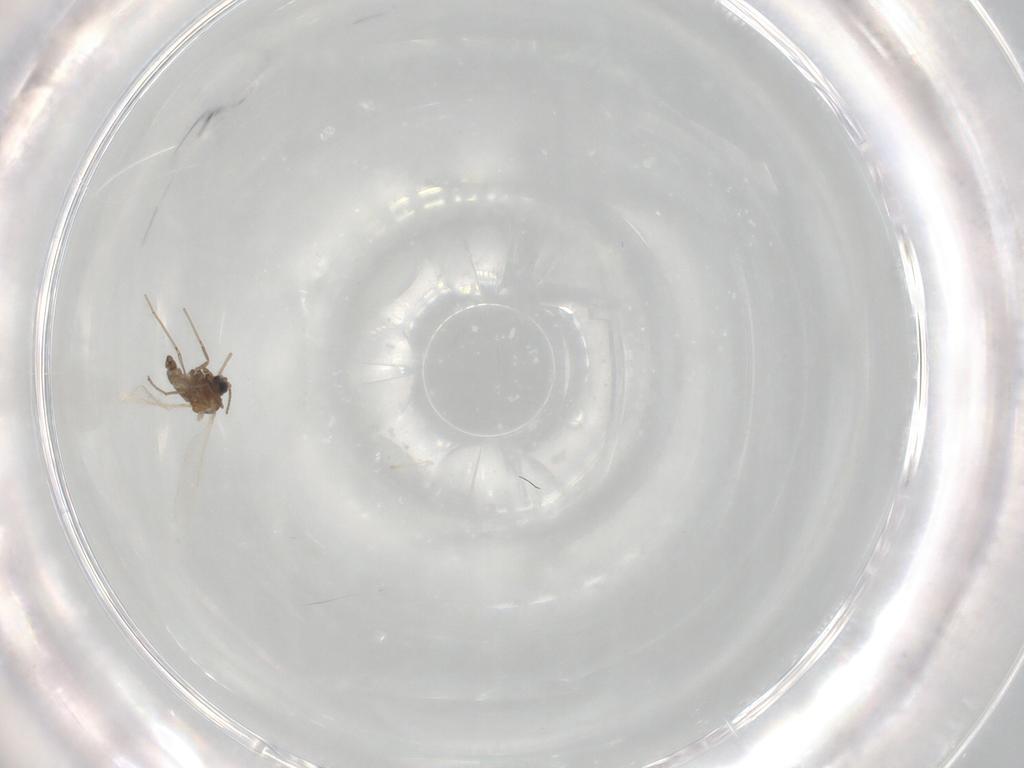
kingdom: Animalia
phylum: Arthropoda
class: Insecta
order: Diptera
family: Cecidomyiidae
